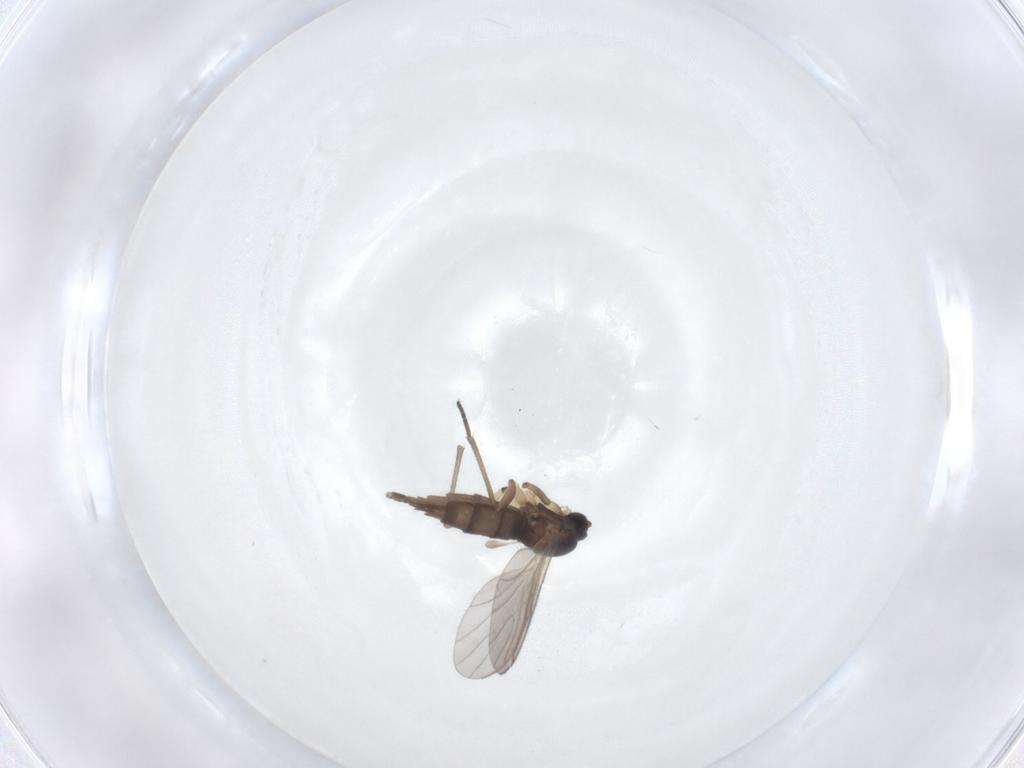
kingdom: Animalia
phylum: Arthropoda
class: Insecta
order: Diptera
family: Sciaridae
